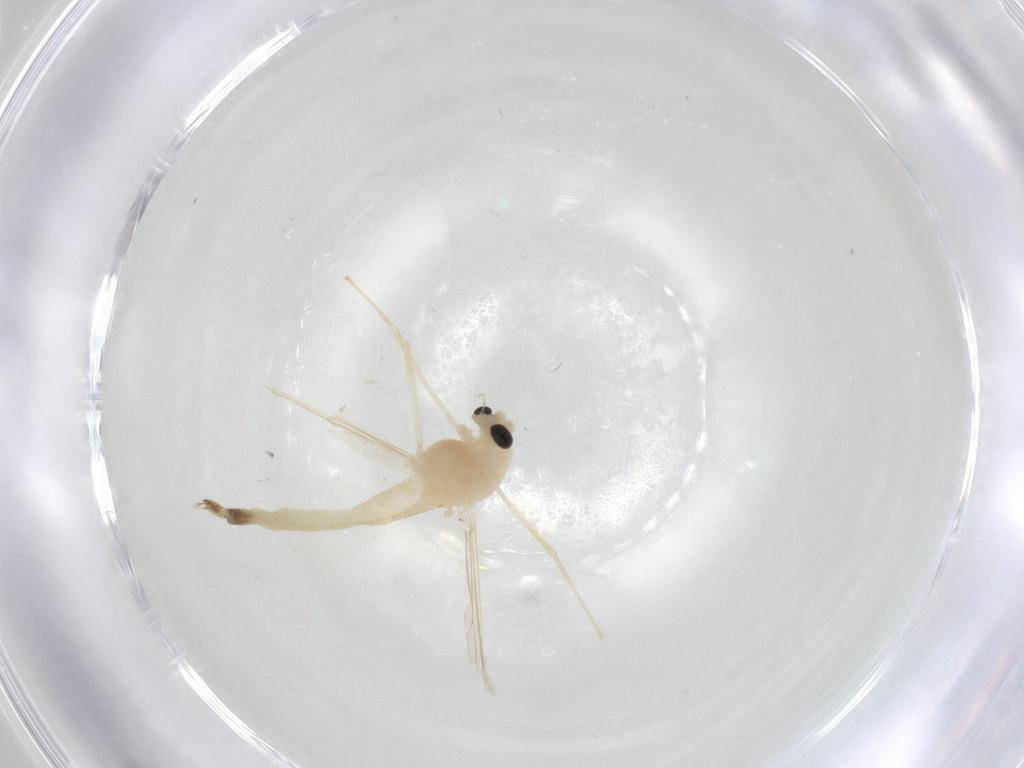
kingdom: Animalia
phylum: Arthropoda
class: Insecta
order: Diptera
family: Chironomidae
